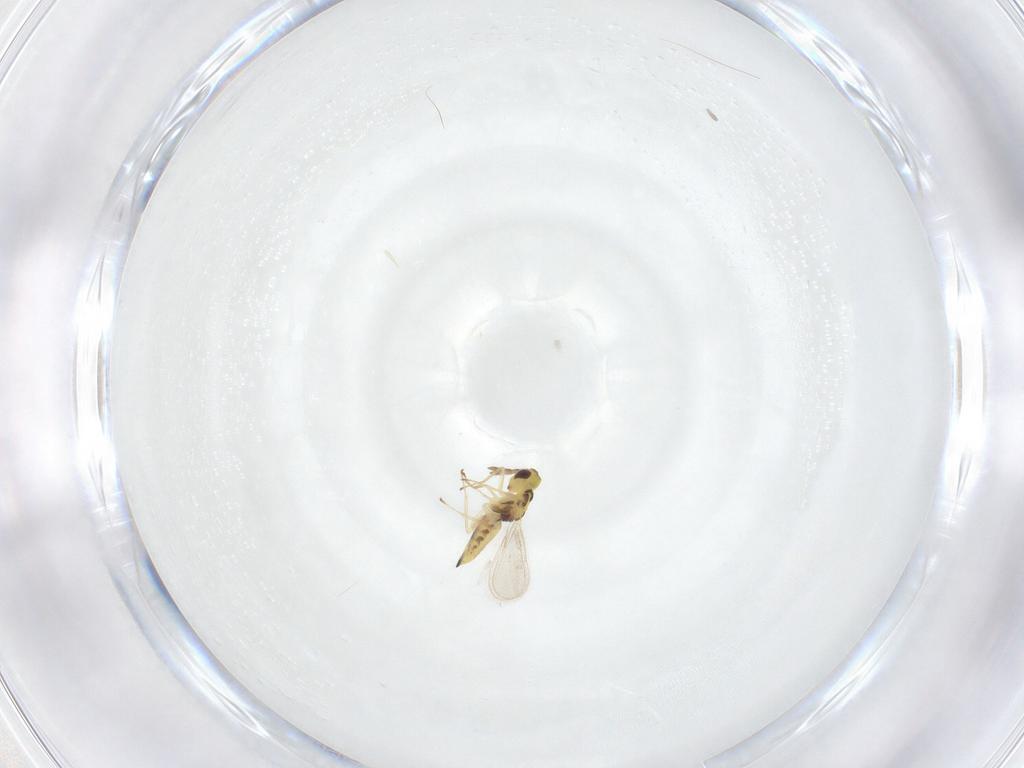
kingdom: Animalia
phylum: Arthropoda
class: Insecta
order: Hymenoptera
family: Eulophidae
